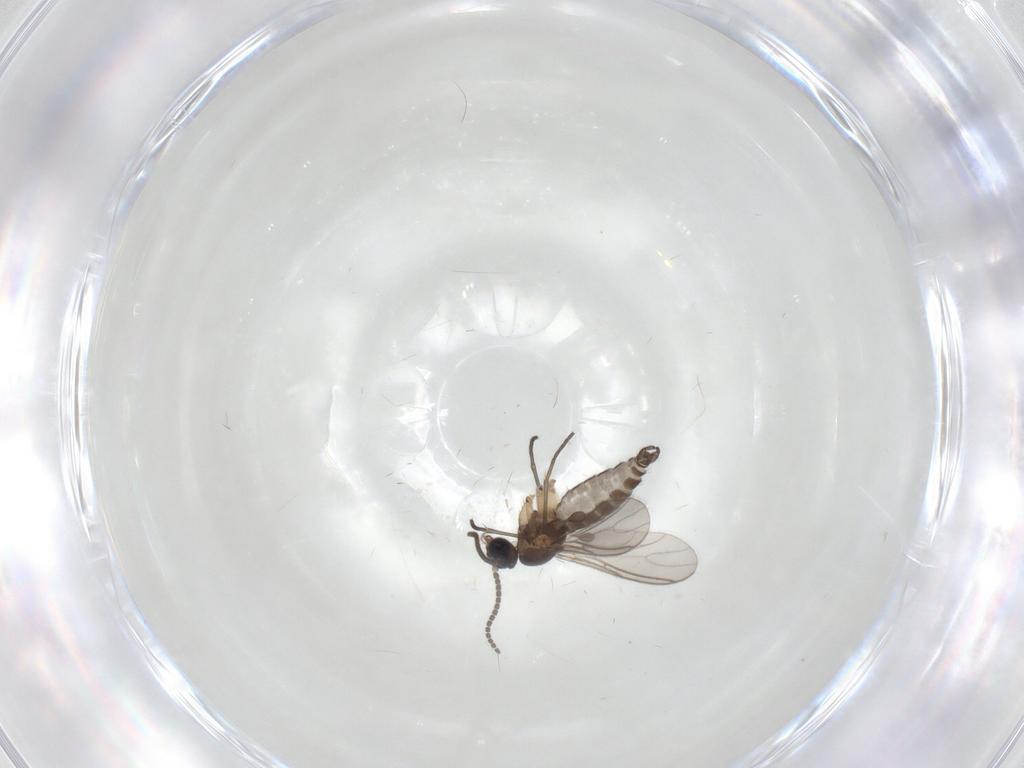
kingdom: Animalia
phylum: Arthropoda
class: Insecta
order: Diptera
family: Sciaridae
